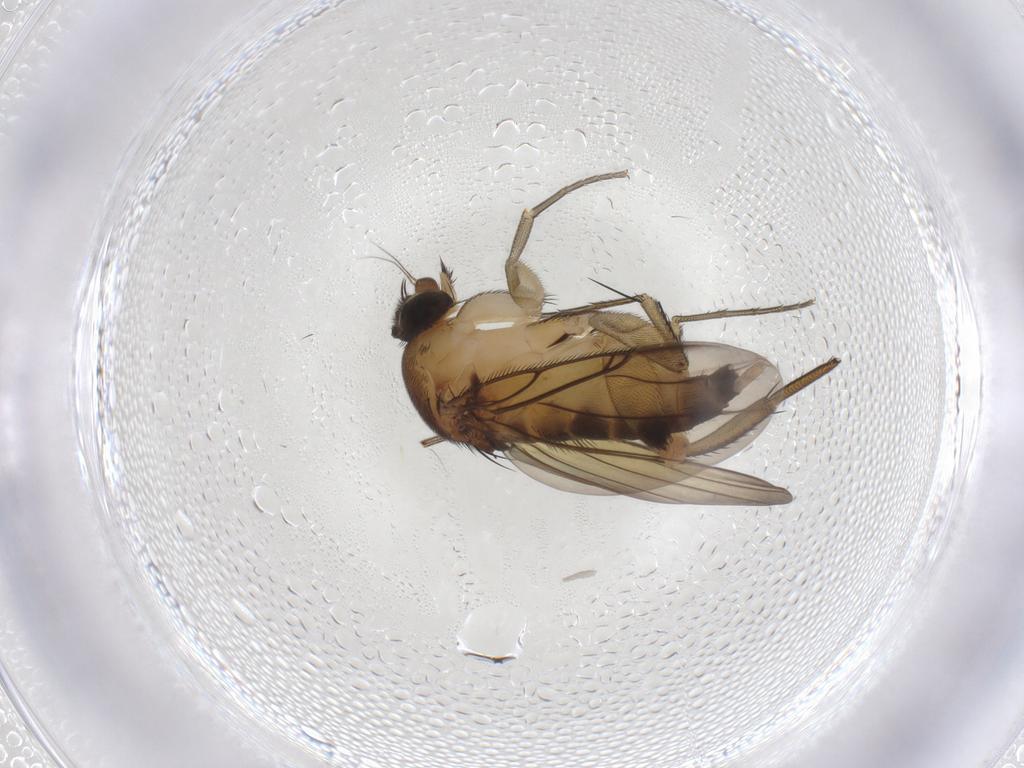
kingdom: Animalia
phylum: Arthropoda
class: Insecta
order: Diptera
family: Phoridae
